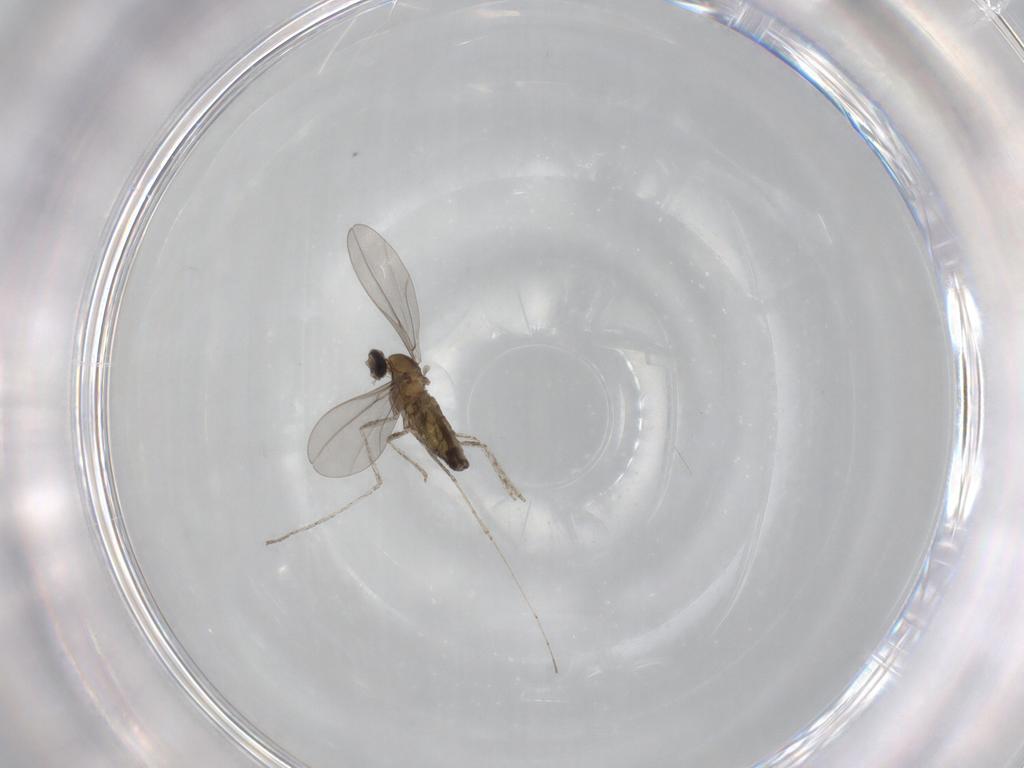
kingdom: Animalia
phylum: Arthropoda
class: Insecta
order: Diptera
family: Cecidomyiidae
